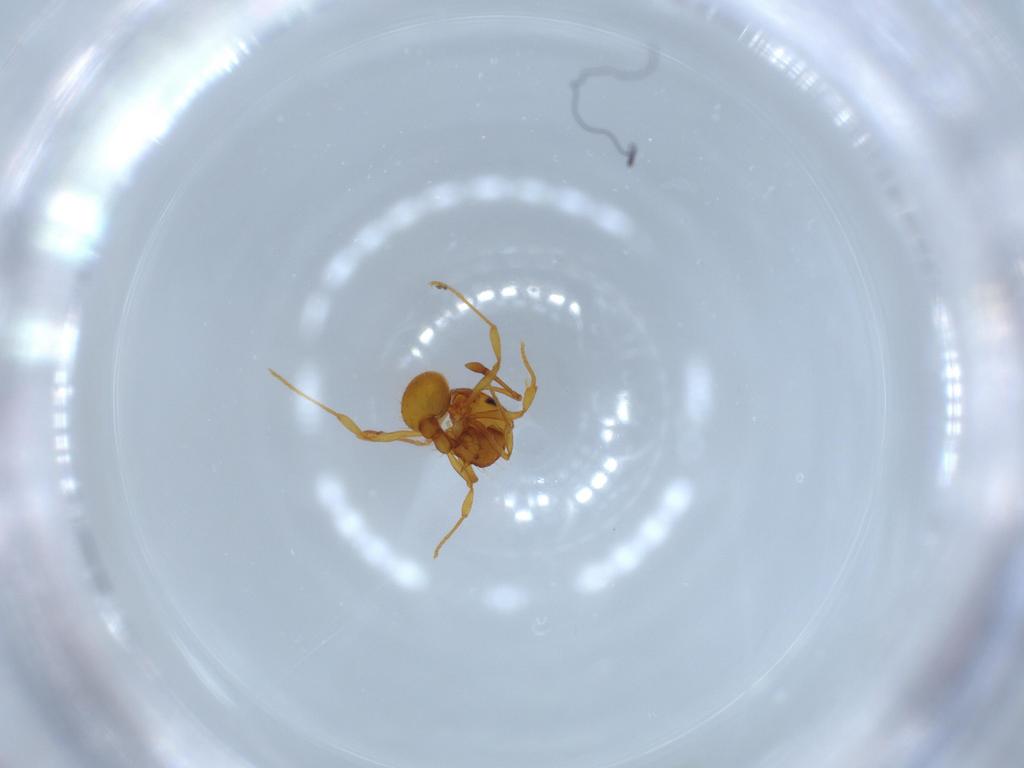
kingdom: Animalia
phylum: Arthropoda
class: Insecta
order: Hymenoptera
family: Formicidae
